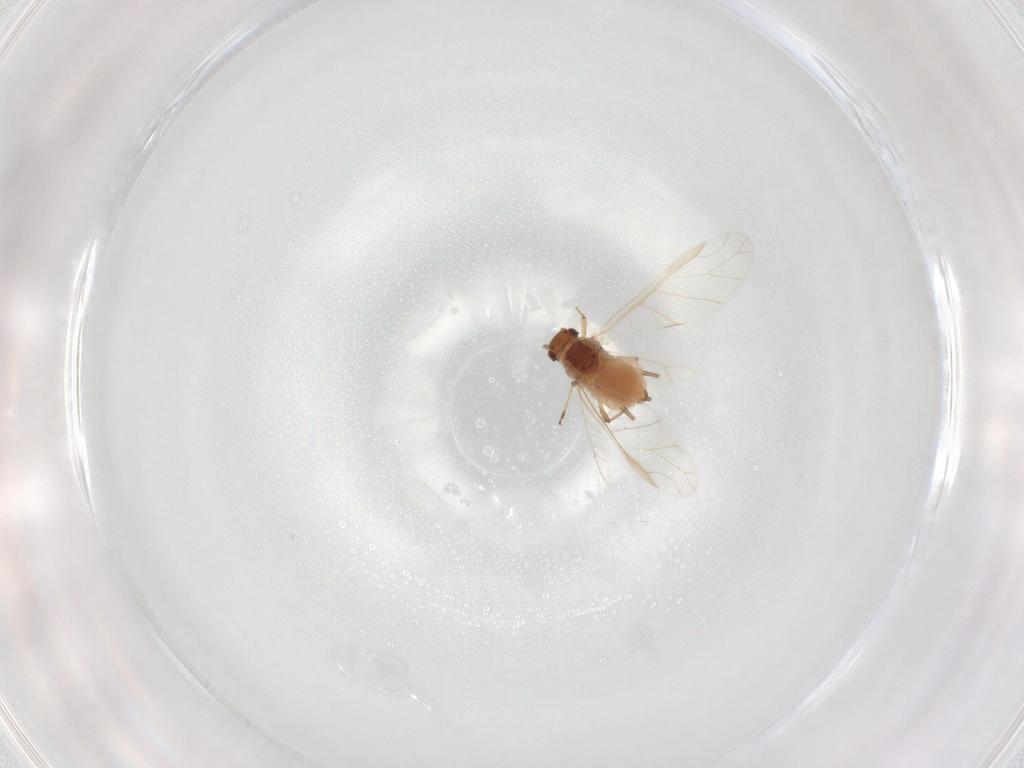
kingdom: Animalia
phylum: Arthropoda
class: Insecta
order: Hemiptera
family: Aphididae
